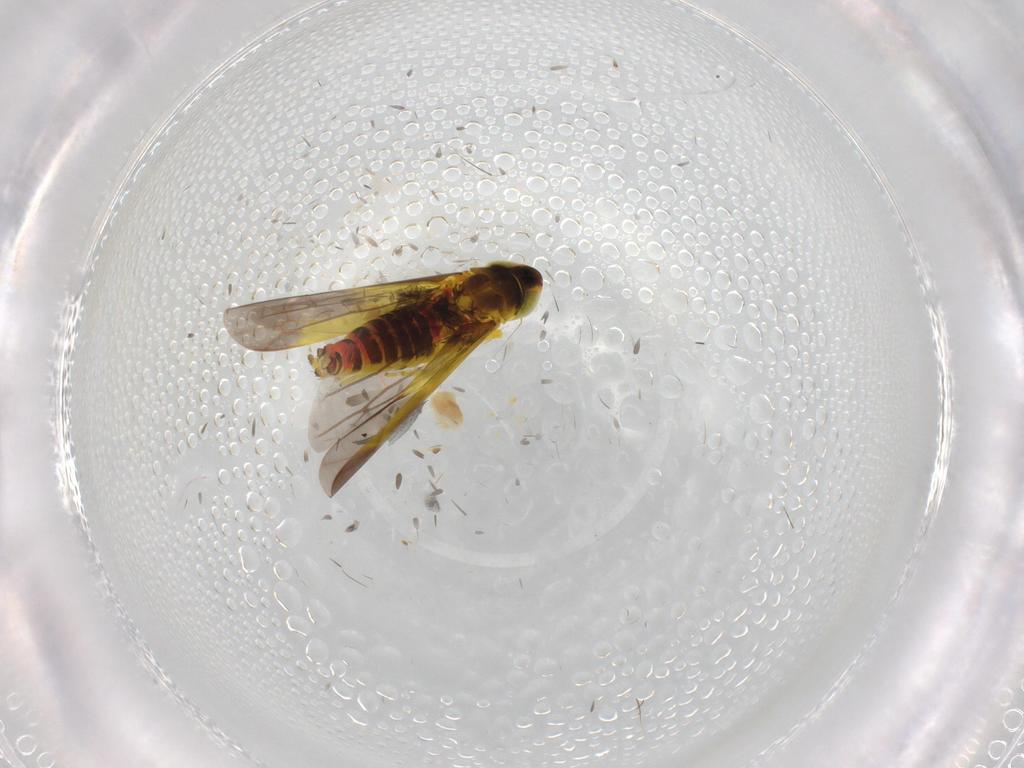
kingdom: Animalia
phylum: Arthropoda
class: Insecta
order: Hemiptera
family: Cicadellidae
